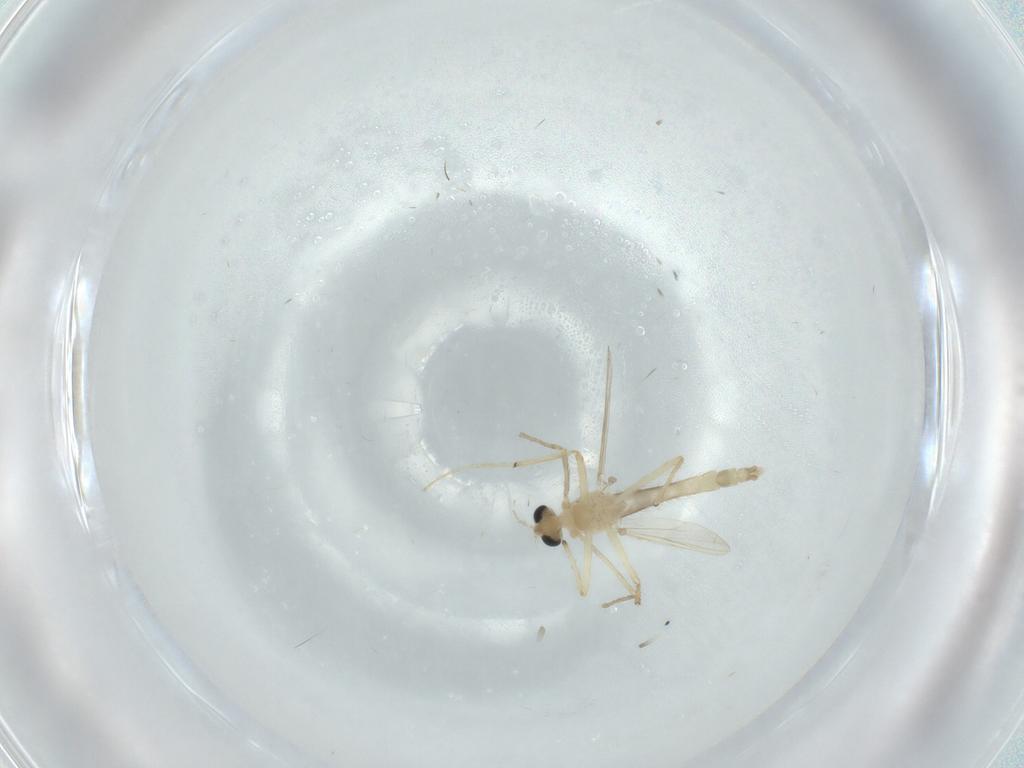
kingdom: Animalia
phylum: Arthropoda
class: Insecta
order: Diptera
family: Chironomidae
